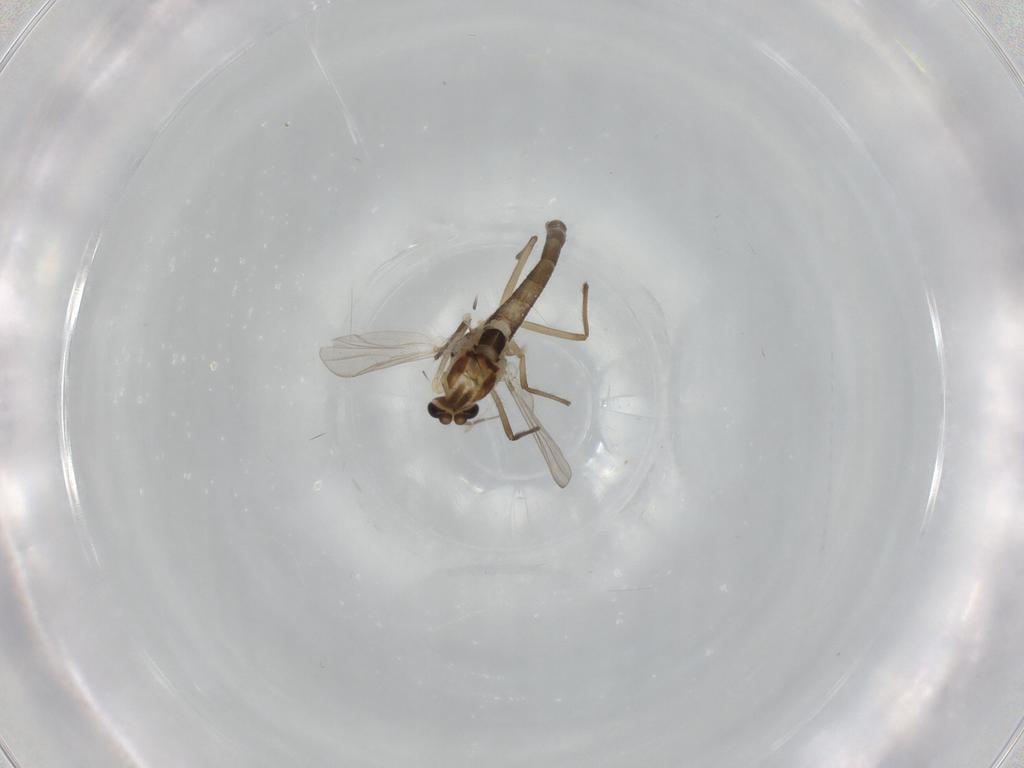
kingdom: Animalia
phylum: Arthropoda
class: Insecta
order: Diptera
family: Chironomidae
